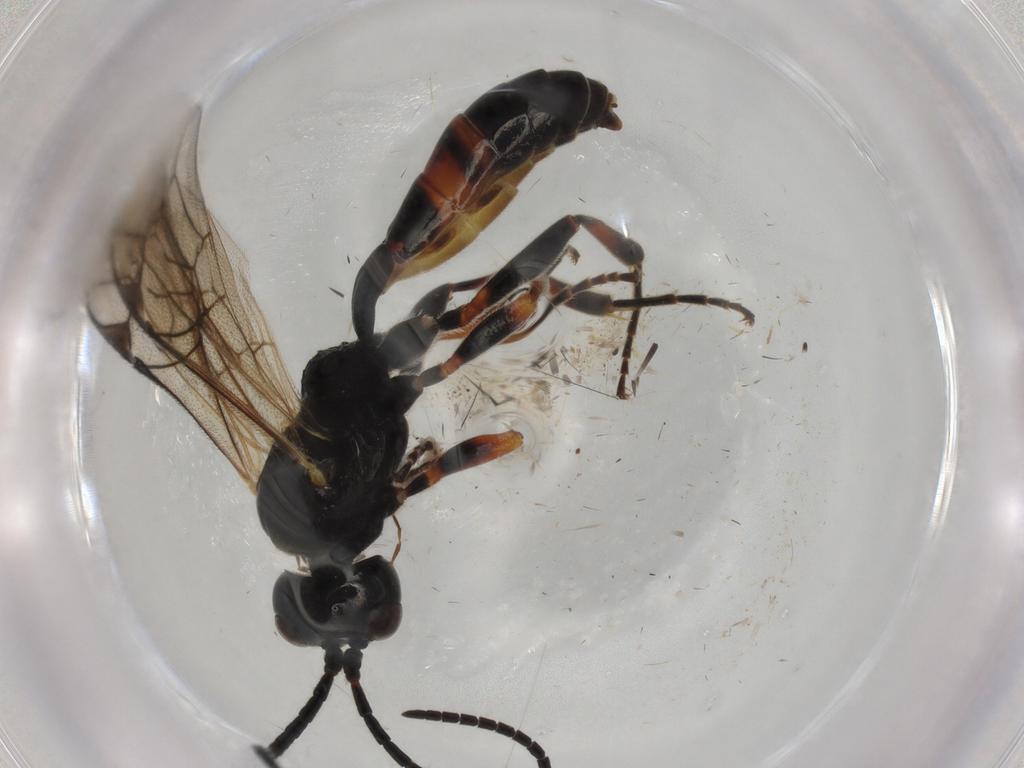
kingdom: Animalia
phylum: Arthropoda
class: Insecta
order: Hymenoptera
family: Ichneumonidae
